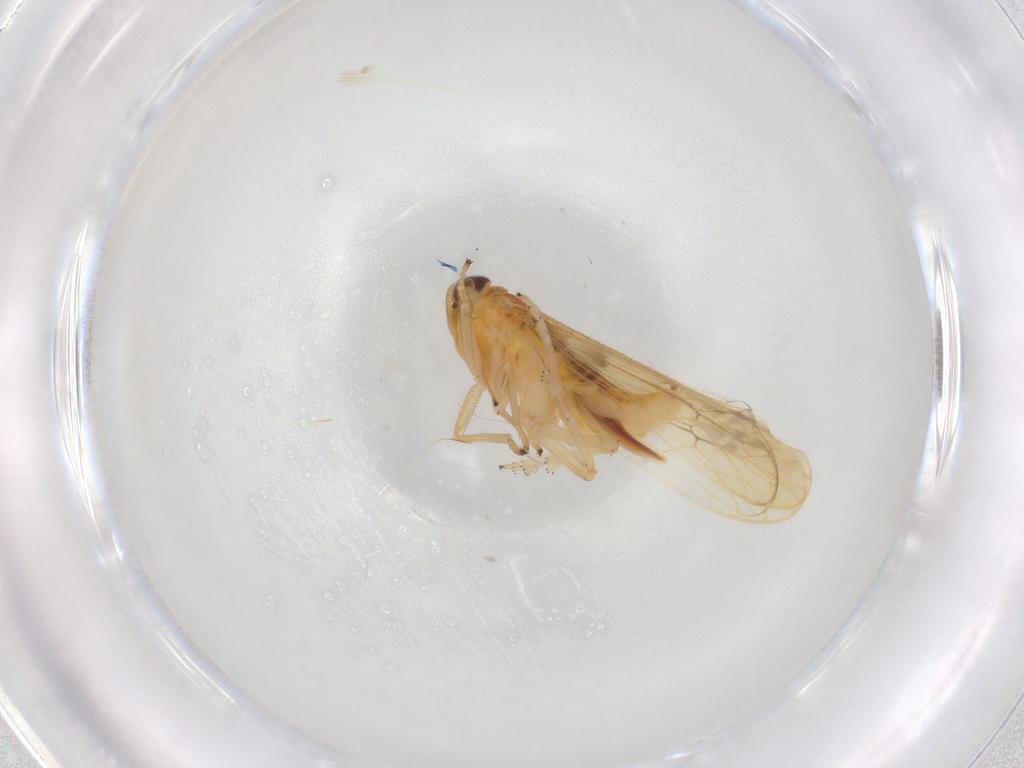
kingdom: Animalia
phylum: Arthropoda
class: Insecta
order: Hemiptera
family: Delphacidae
